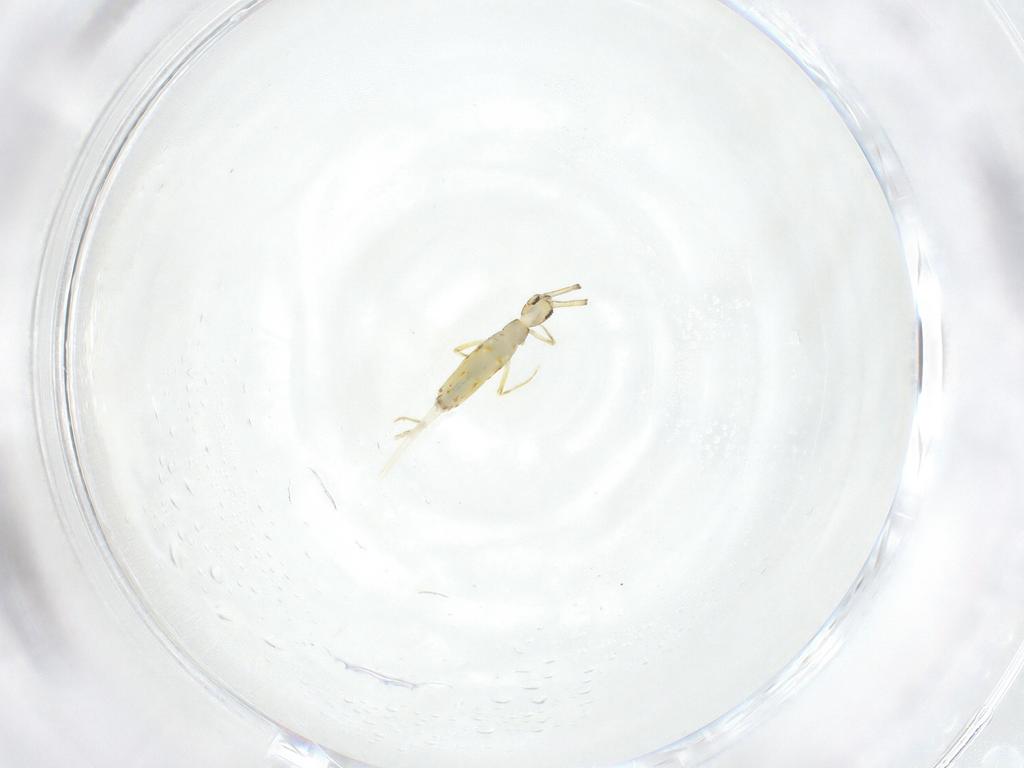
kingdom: Animalia
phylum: Arthropoda
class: Collembola
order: Entomobryomorpha
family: Paronellidae
